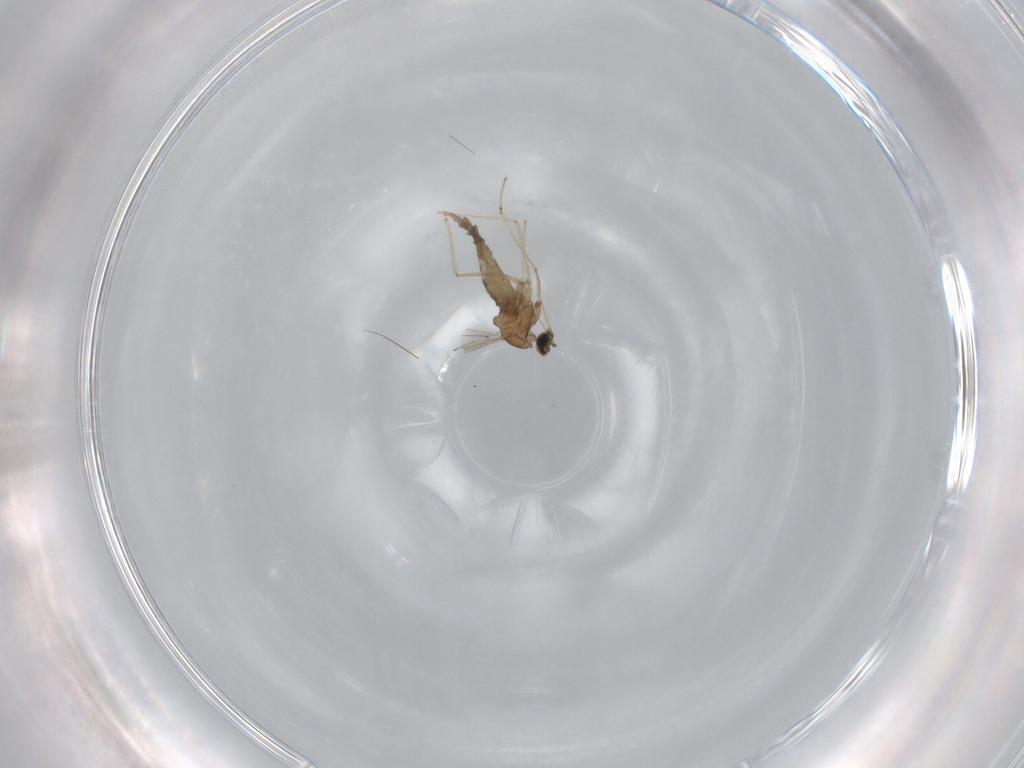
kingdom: Animalia
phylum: Arthropoda
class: Insecta
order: Diptera
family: Cecidomyiidae
